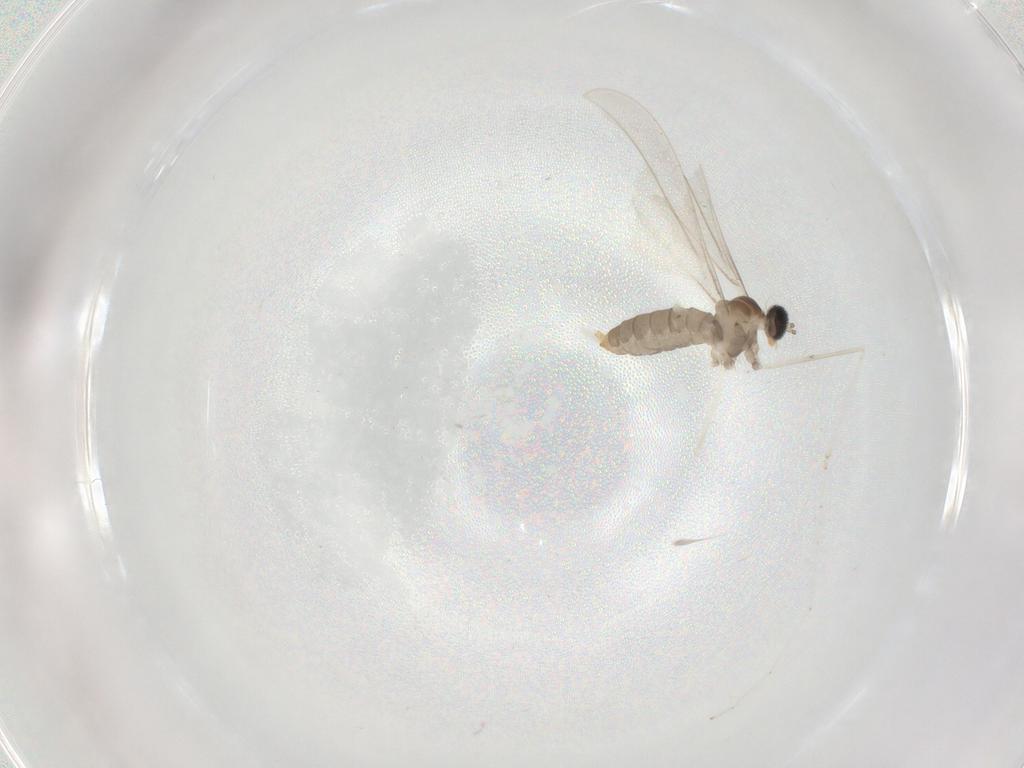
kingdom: Animalia
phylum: Arthropoda
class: Insecta
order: Diptera
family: Cecidomyiidae
